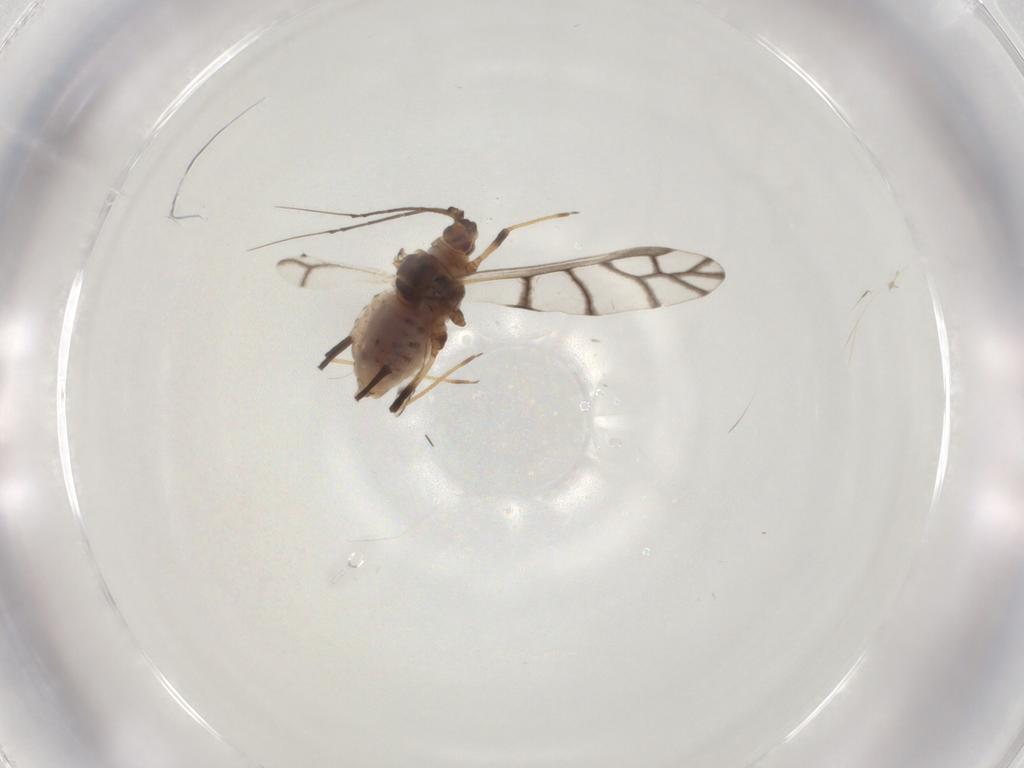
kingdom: Animalia
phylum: Arthropoda
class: Insecta
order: Hemiptera
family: Aphididae
